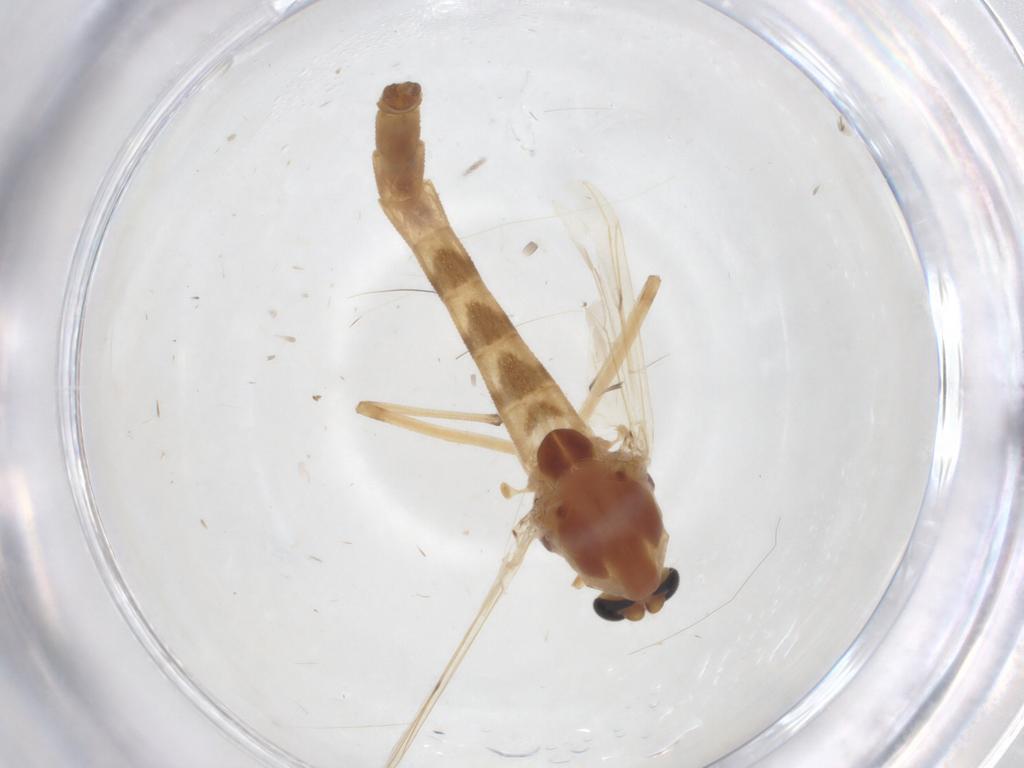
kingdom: Animalia
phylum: Arthropoda
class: Insecta
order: Diptera
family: Chironomidae
